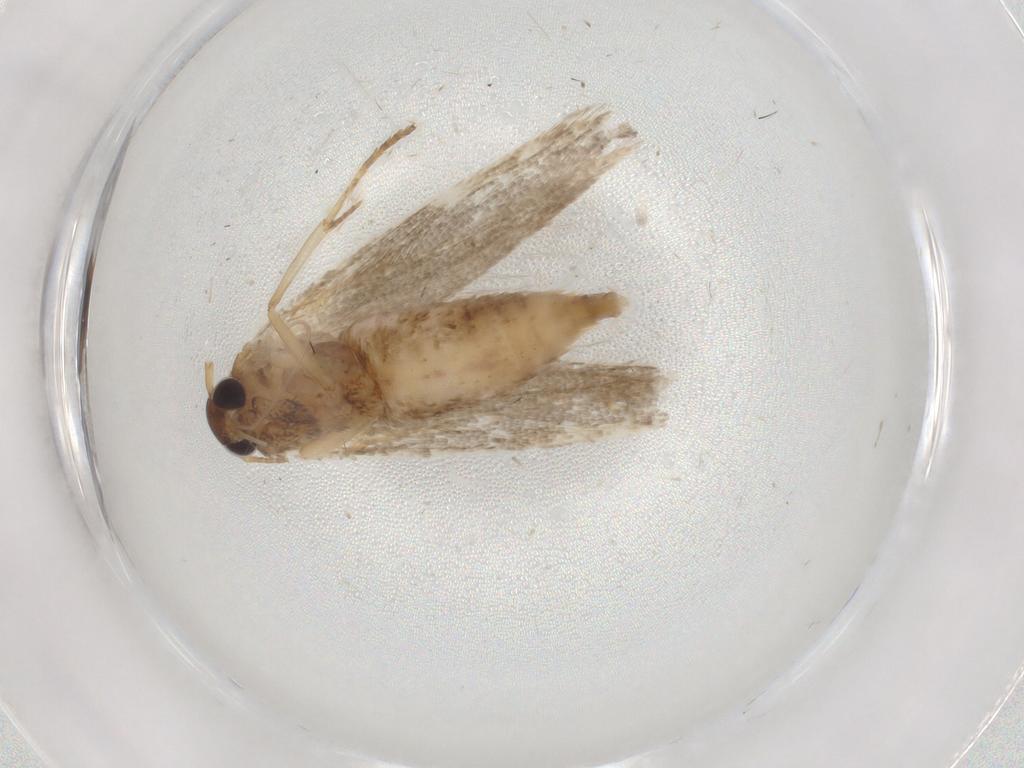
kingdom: Animalia
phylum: Arthropoda
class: Insecta
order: Lepidoptera
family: Blastobasidae
